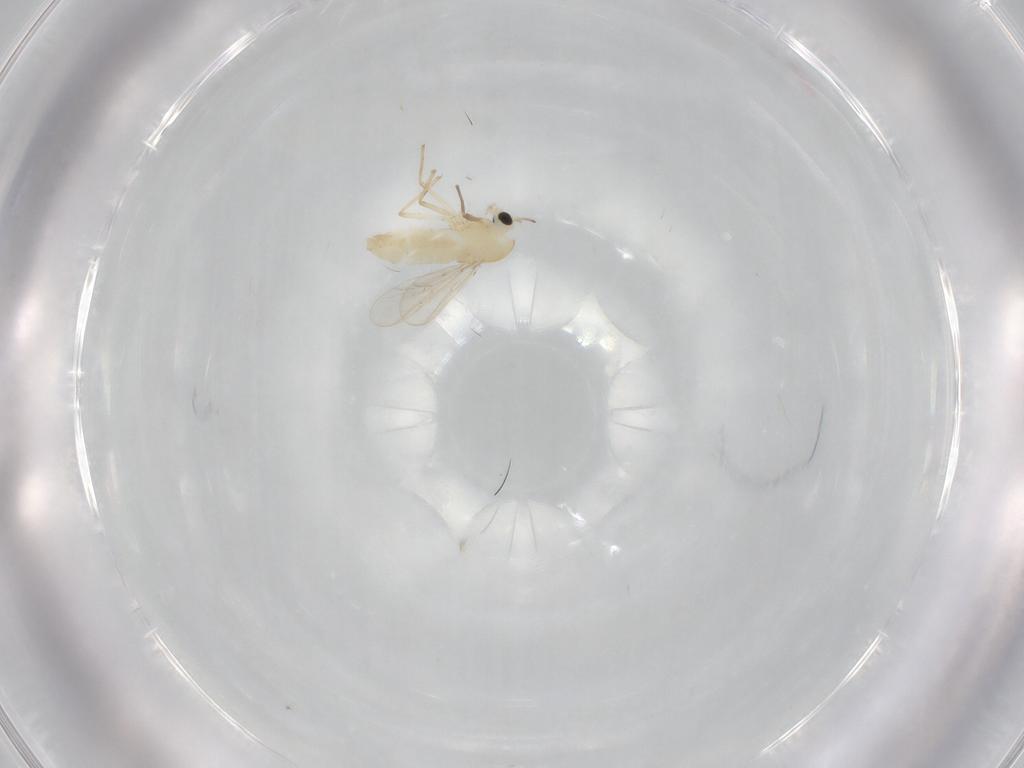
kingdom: Animalia
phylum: Arthropoda
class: Insecta
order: Diptera
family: Chironomidae
